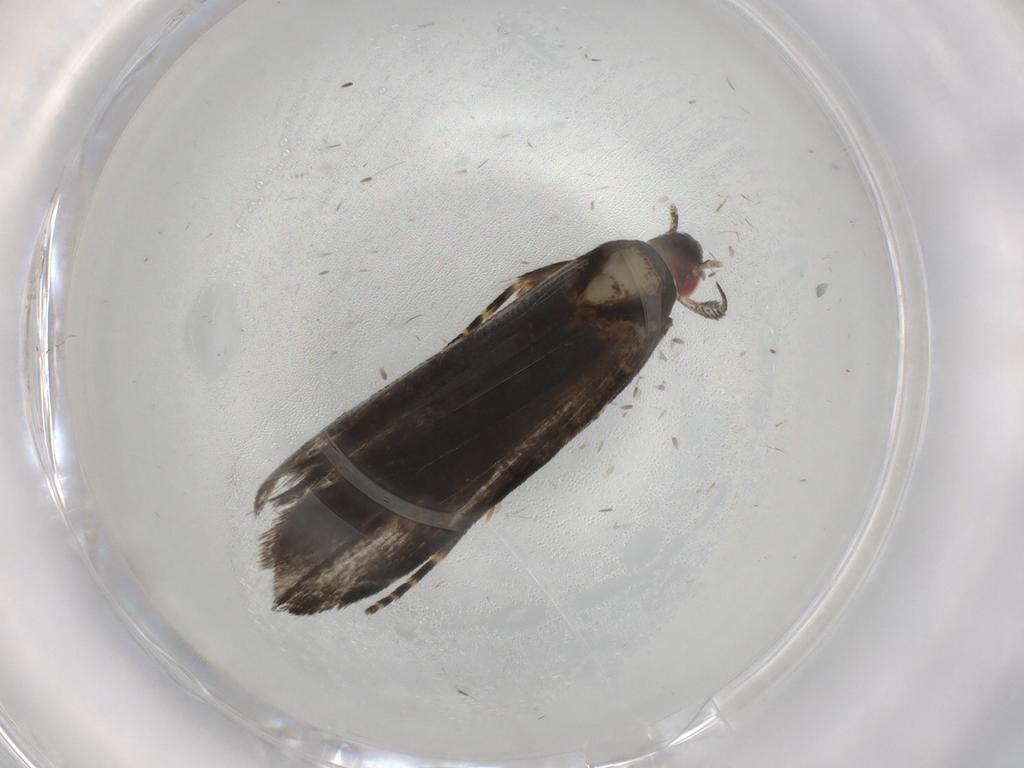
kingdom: Animalia
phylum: Arthropoda
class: Insecta
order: Lepidoptera
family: Gelechiidae
